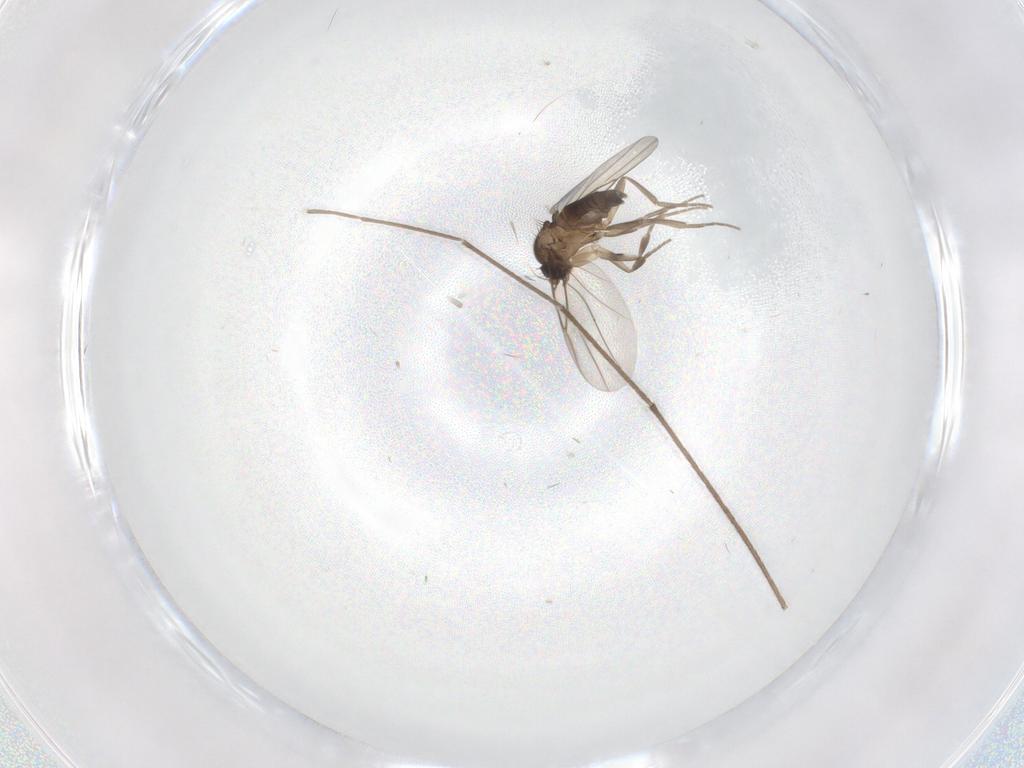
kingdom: Animalia
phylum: Arthropoda
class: Insecta
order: Diptera
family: Chironomidae
